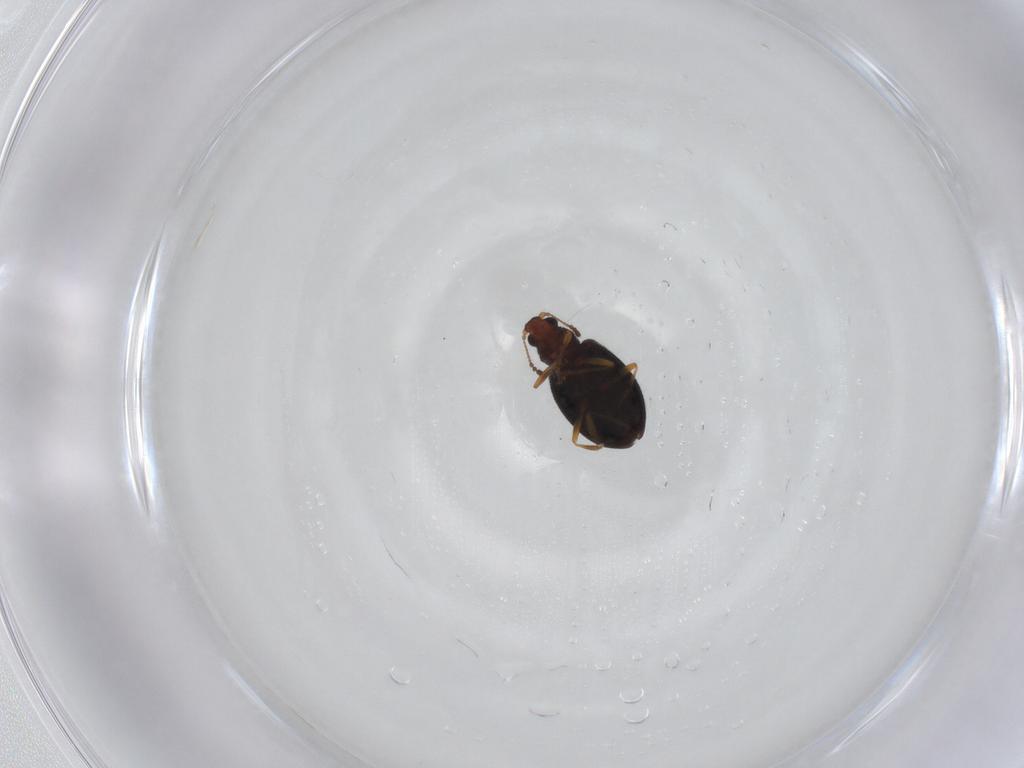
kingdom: Animalia
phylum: Arthropoda
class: Insecta
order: Coleoptera
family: Latridiidae
